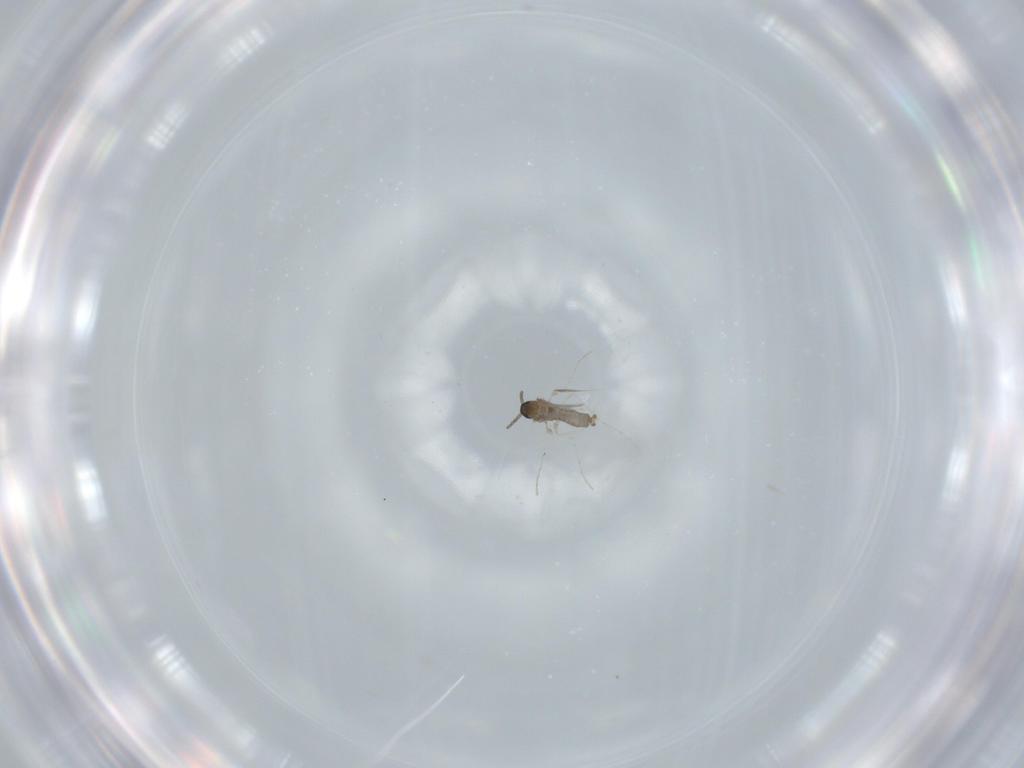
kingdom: Animalia
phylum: Arthropoda
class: Insecta
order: Diptera
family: Cecidomyiidae
